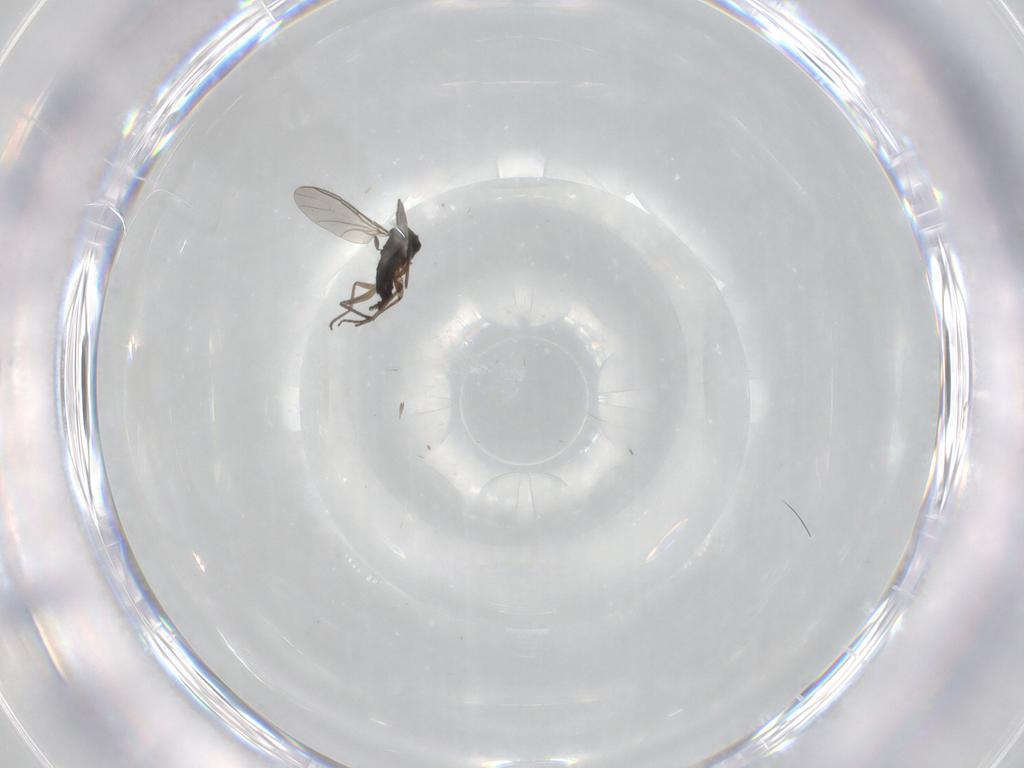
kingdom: Animalia
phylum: Arthropoda
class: Insecta
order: Diptera
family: Sciaridae
